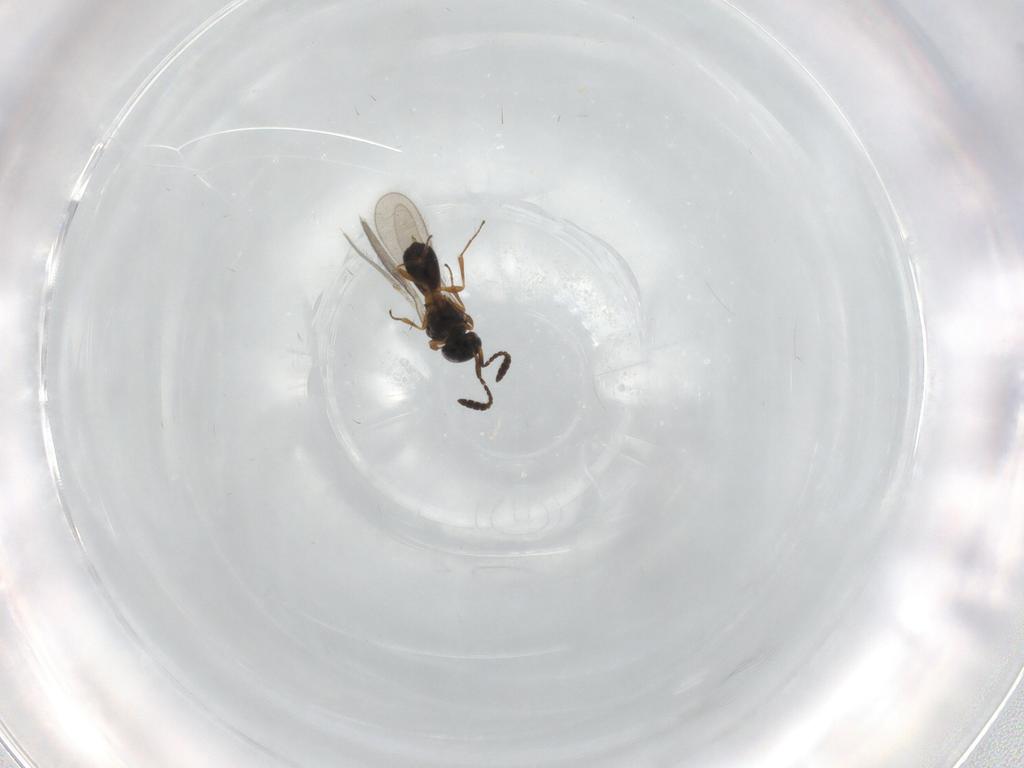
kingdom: Animalia
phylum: Arthropoda
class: Insecta
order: Hymenoptera
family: Scelionidae
